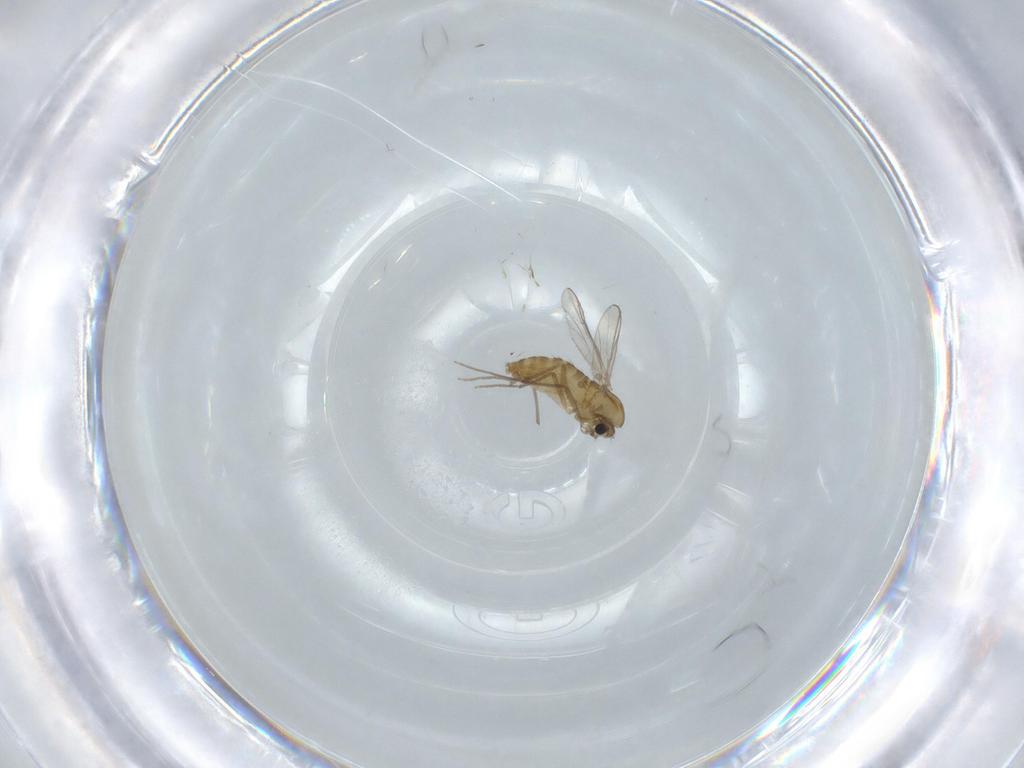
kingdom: Animalia
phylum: Arthropoda
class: Insecta
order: Diptera
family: Chironomidae
